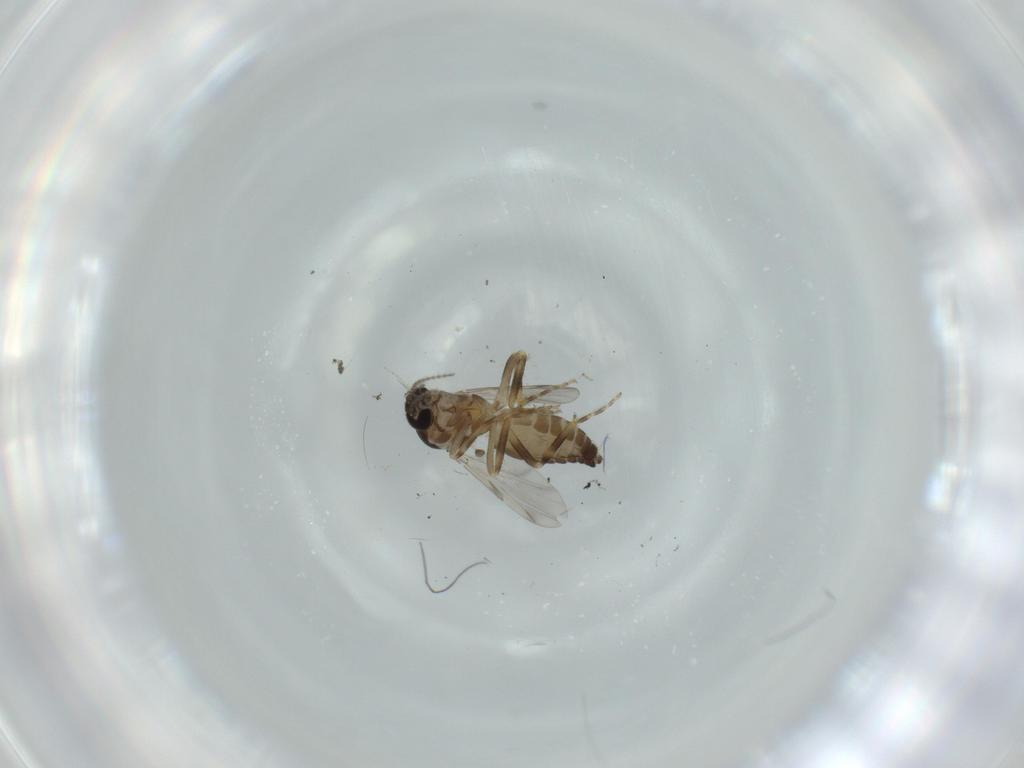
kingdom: Animalia
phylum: Arthropoda
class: Insecta
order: Diptera
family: Ceratopogonidae
